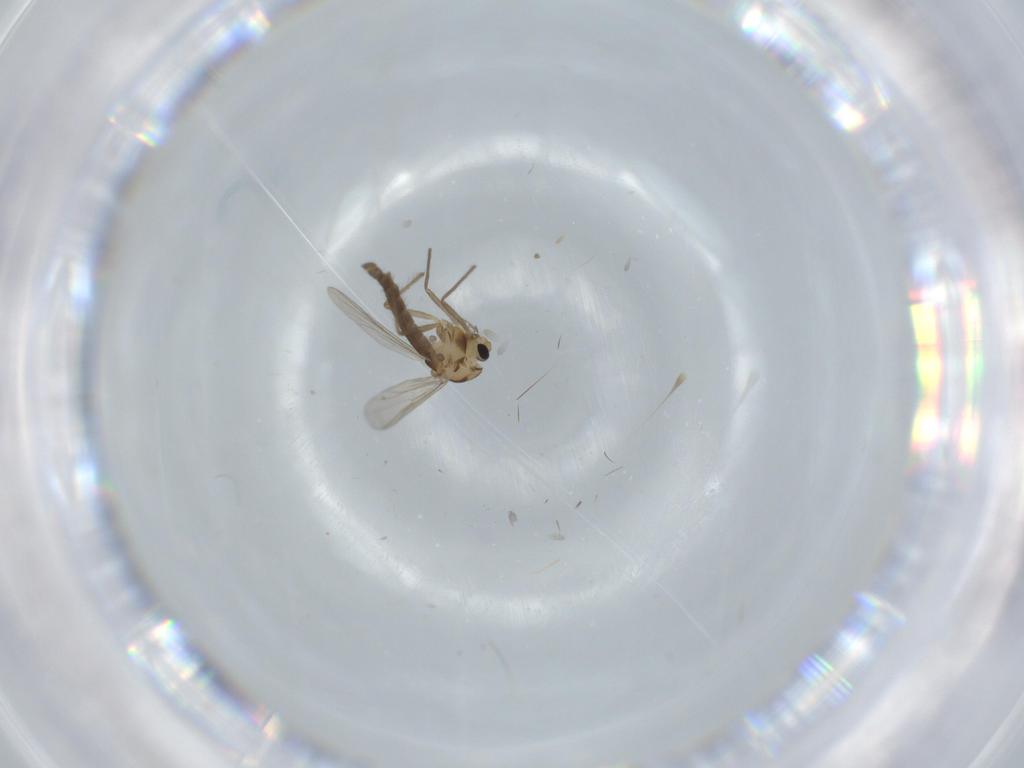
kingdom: Animalia
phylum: Arthropoda
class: Insecta
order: Diptera
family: Chironomidae
